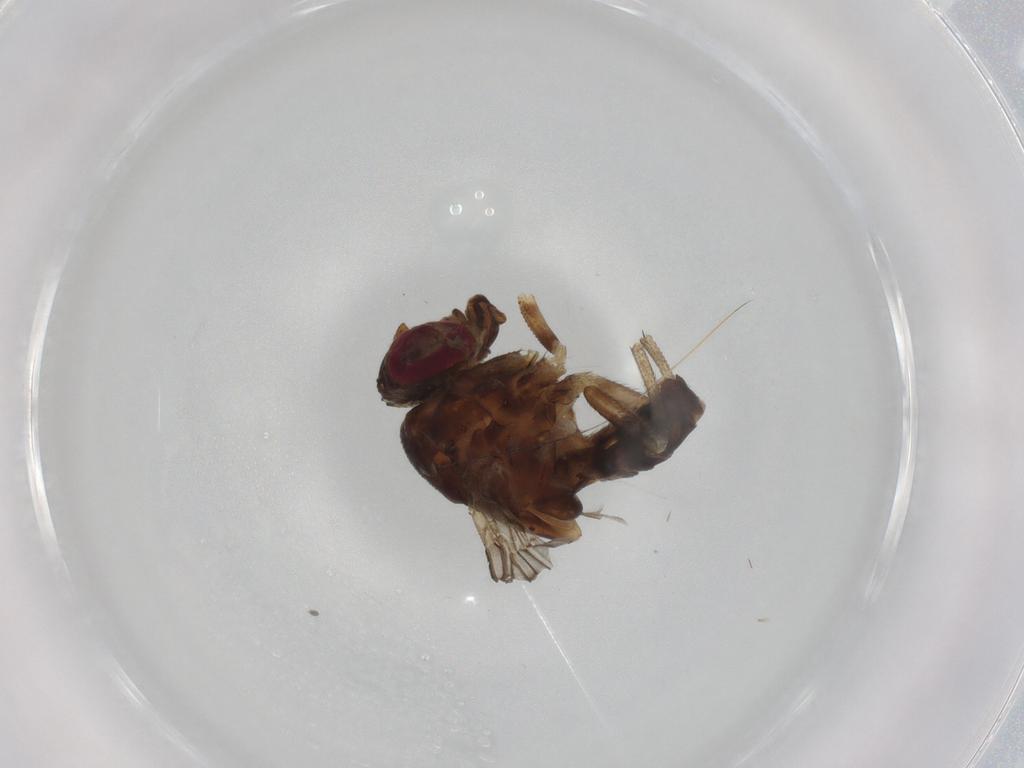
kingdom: Animalia
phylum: Arthropoda
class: Insecta
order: Diptera
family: Curtonotidae
